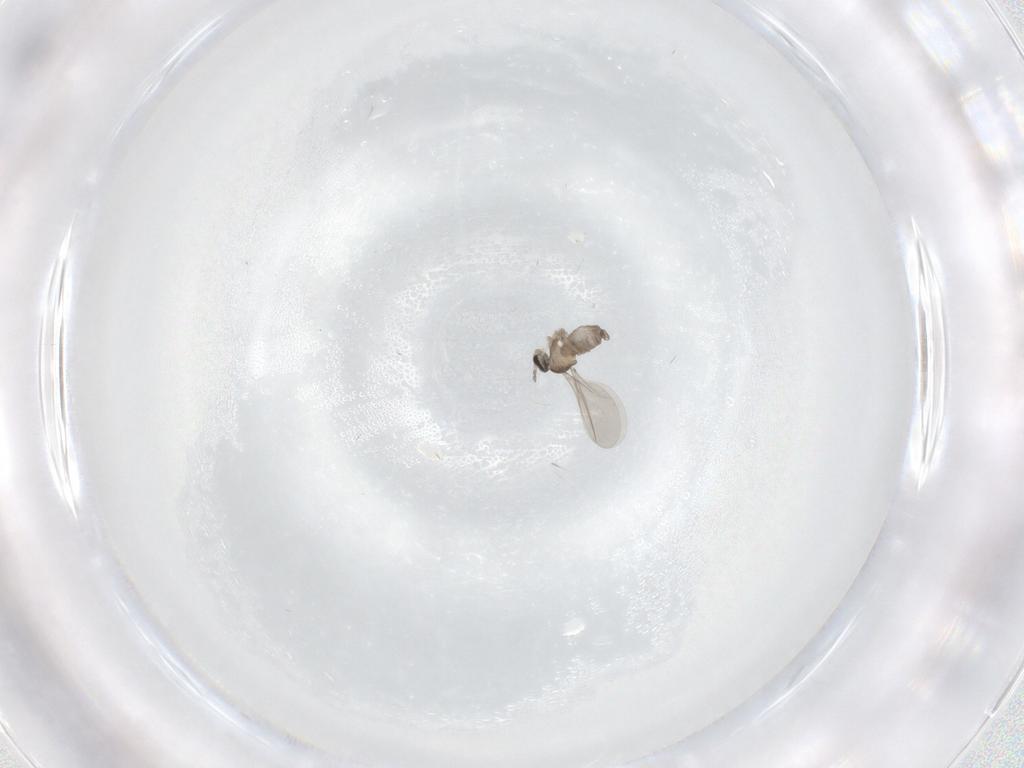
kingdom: Animalia
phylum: Arthropoda
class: Insecta
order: Diptera
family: Cecidomyiidae
